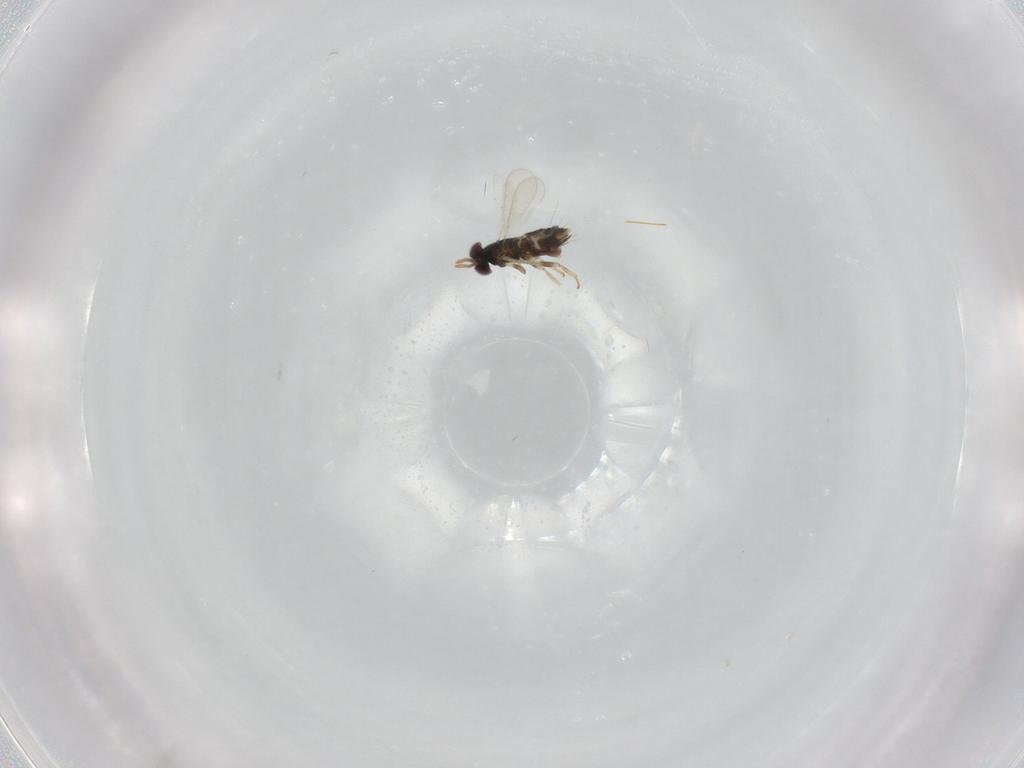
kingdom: Animalia
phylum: Arthropoda
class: Insecta
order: Hymenoptera
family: Aphelinidae
